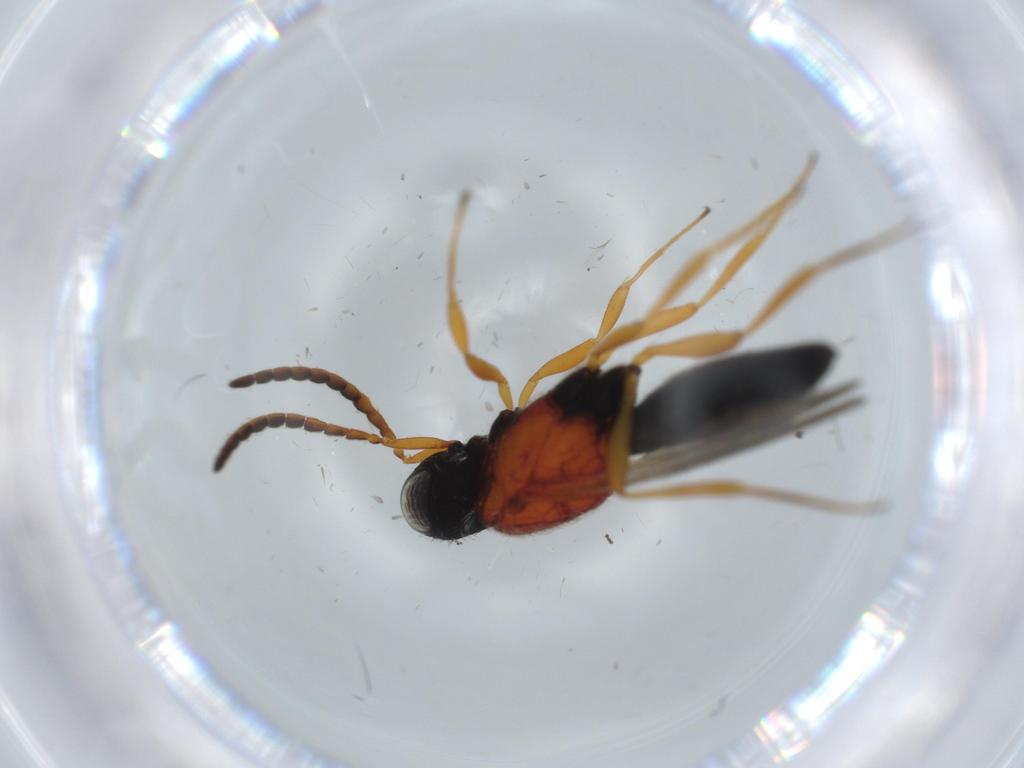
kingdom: Animalia
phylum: Arthropoda
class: Insecta
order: Hymenoptera
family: Scelionidae
